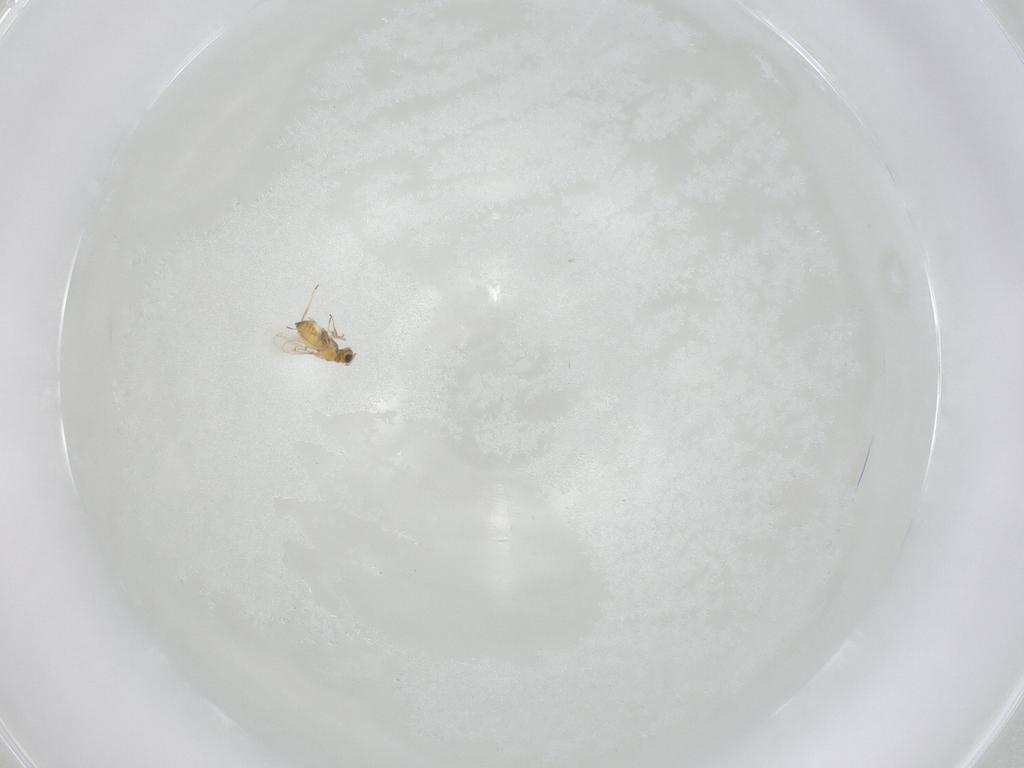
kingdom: Animalia
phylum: Arthropoda
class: Insecta
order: Hymenoptera
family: Trichogrammatidae
